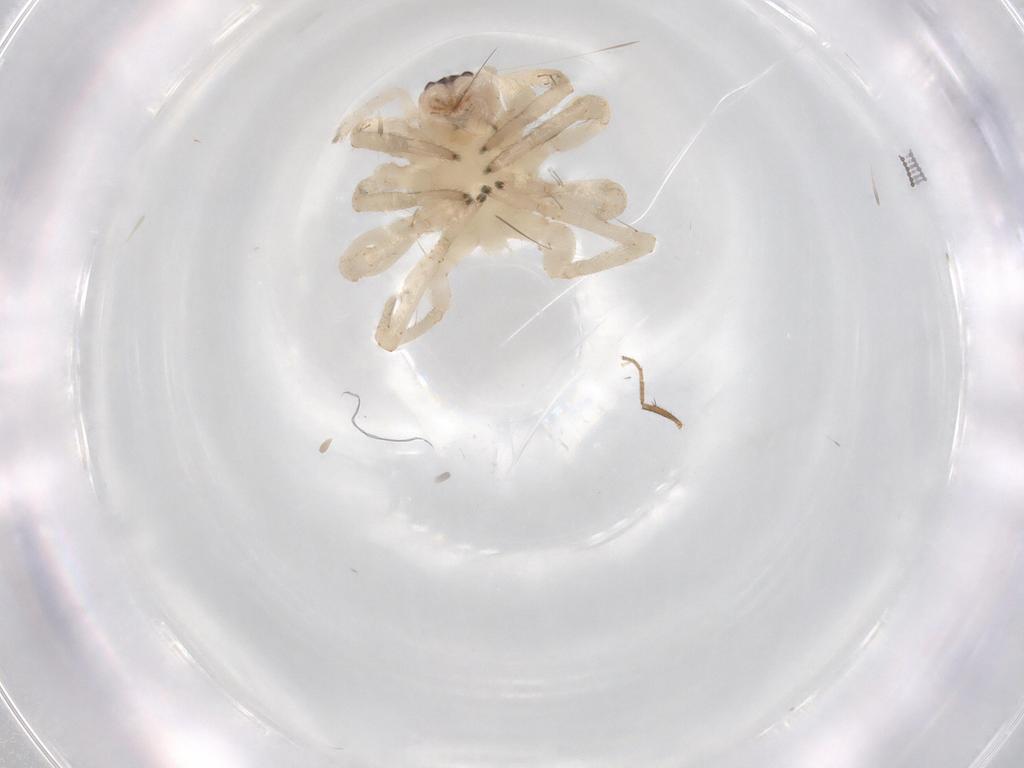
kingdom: Animalia
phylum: Arthropoda
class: Arachnida
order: Araneae
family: Clubionidae
